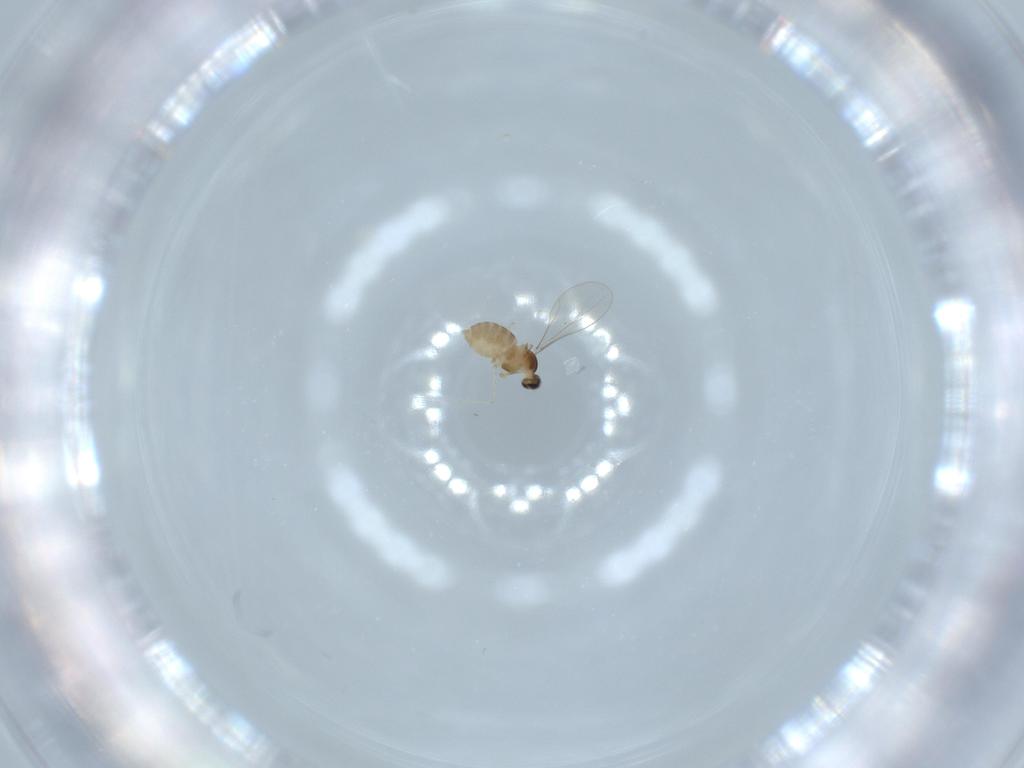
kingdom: Animalia
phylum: Arthropoda
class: Insecta
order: Diptera
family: Cecidomyiidae
